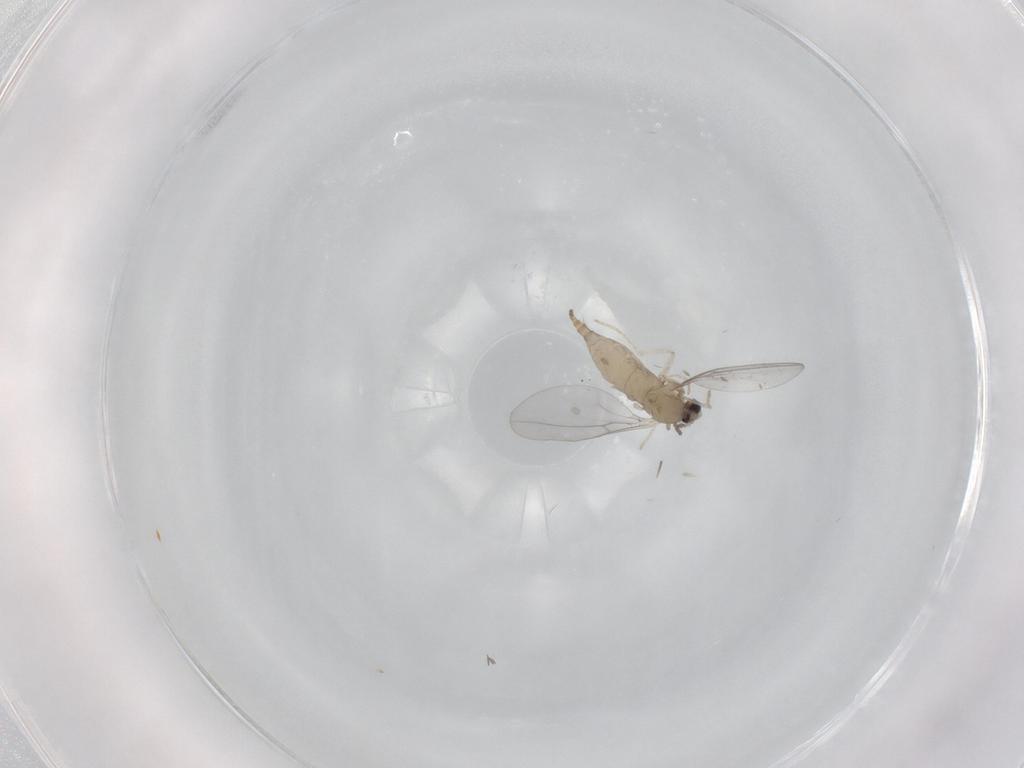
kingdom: Animalia
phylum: Arthropoda
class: Insecta
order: Diptera
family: Cecidomyiidae
